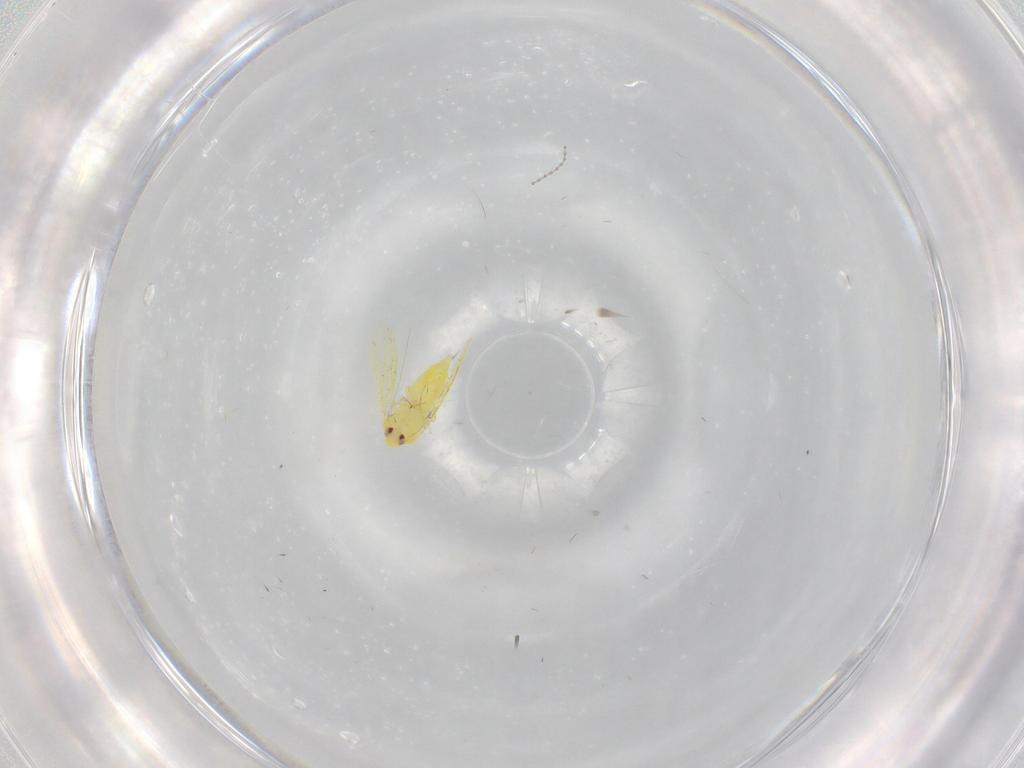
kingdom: Animalia
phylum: Arthropoda
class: Insecta
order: Hemiptera
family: Aleyrodidae
